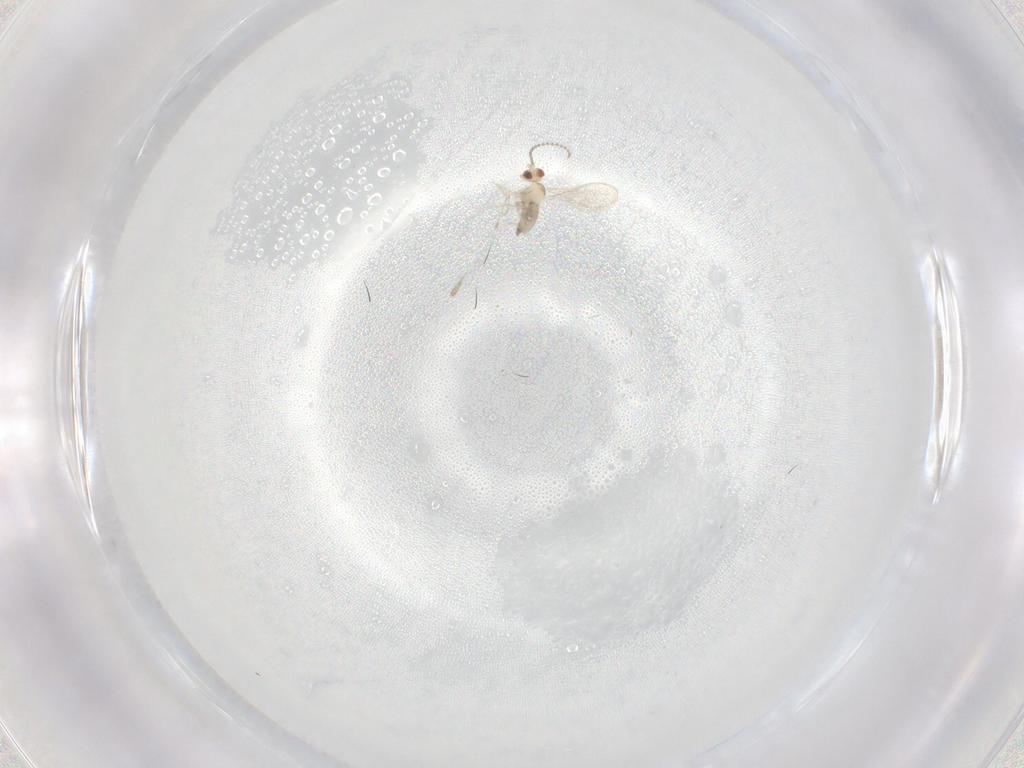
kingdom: Animalia
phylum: Arthropoda
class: Insecta
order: Diptera
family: Cecidomyiidae
